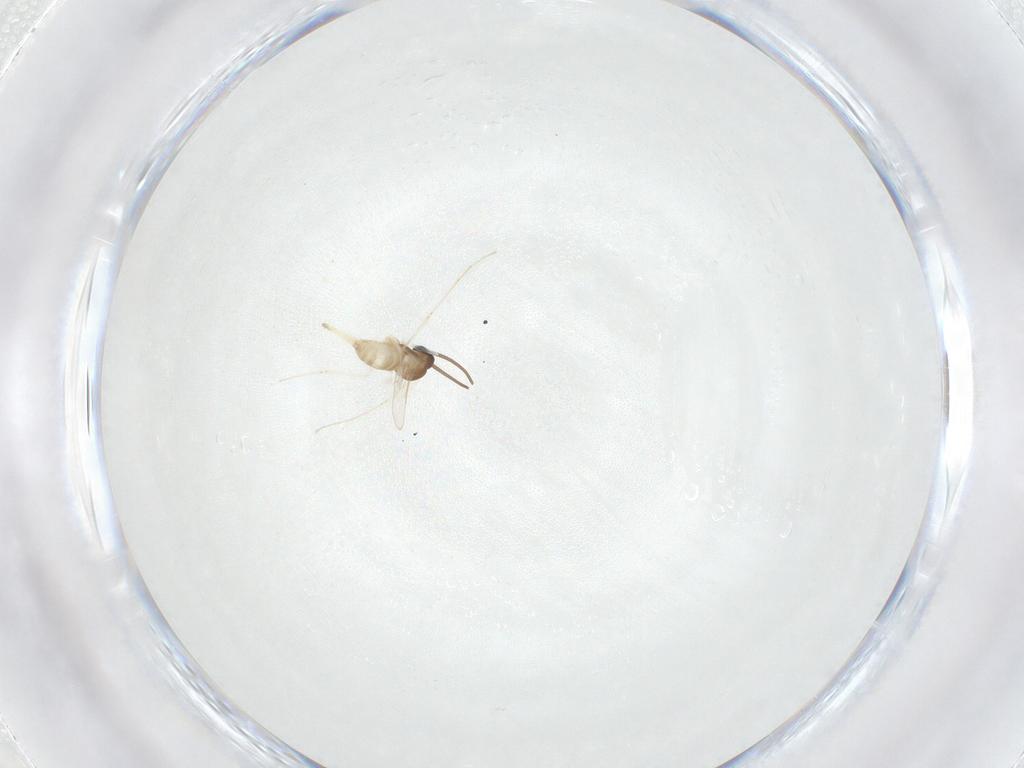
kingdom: Animalia
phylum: Arthropoda
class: Insecta
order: Diptera
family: Cecidomyiidae
